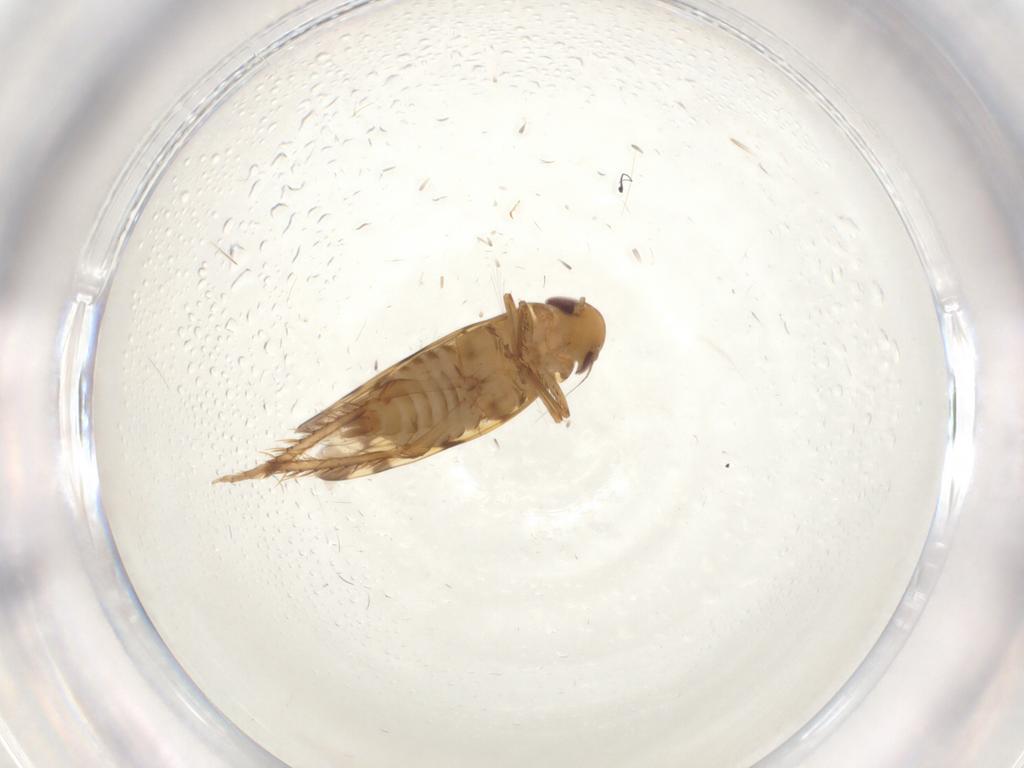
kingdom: Animalia
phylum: Arthropoda
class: Insecta
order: Hemiptera
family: Cicadellidae
